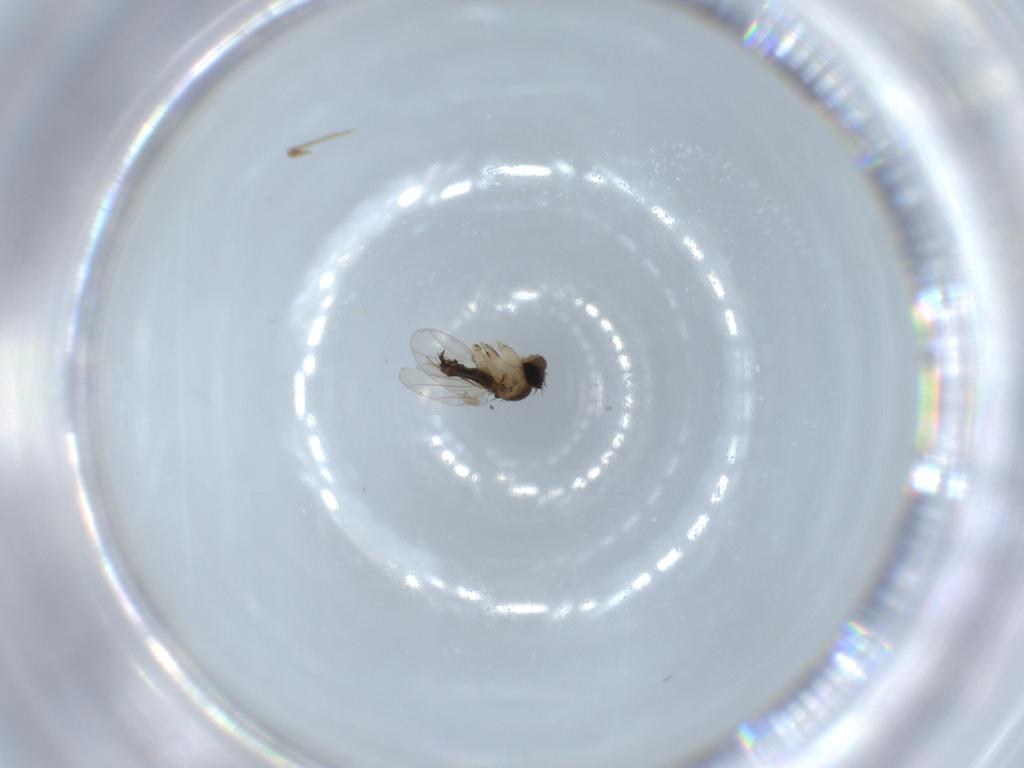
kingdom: Animalia
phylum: Arthropoda
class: Insecta
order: Diptera
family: Phoridae
